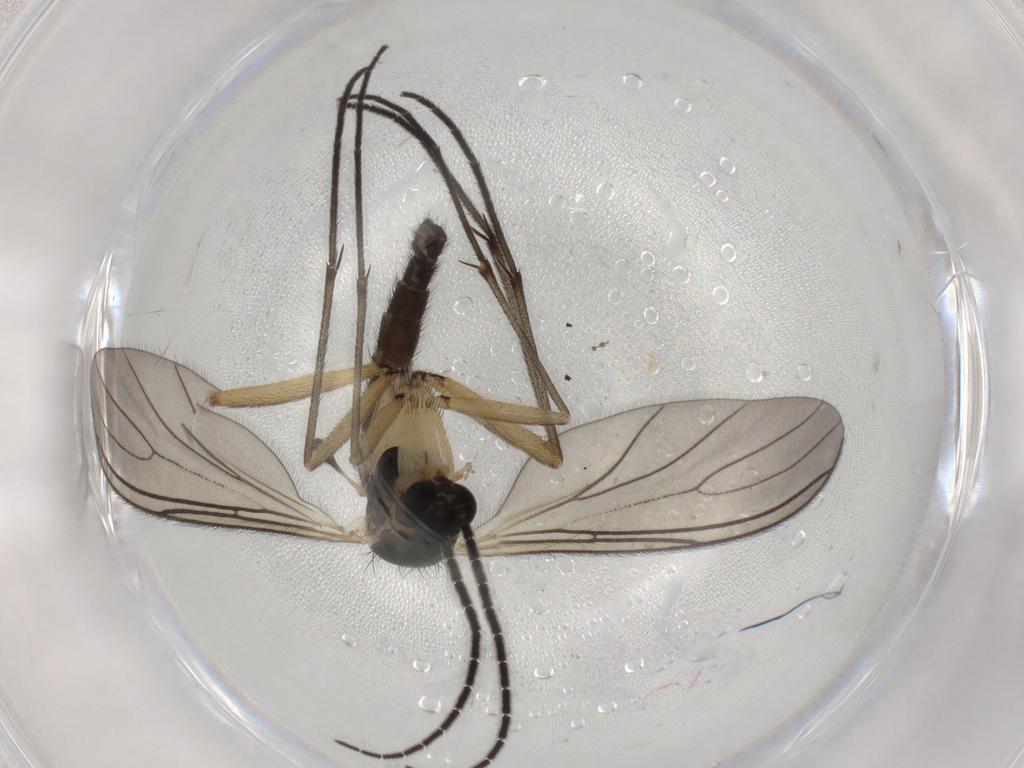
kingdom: Animalia
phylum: Arthropoda
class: Insecta
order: Diptera
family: Sciaridae
